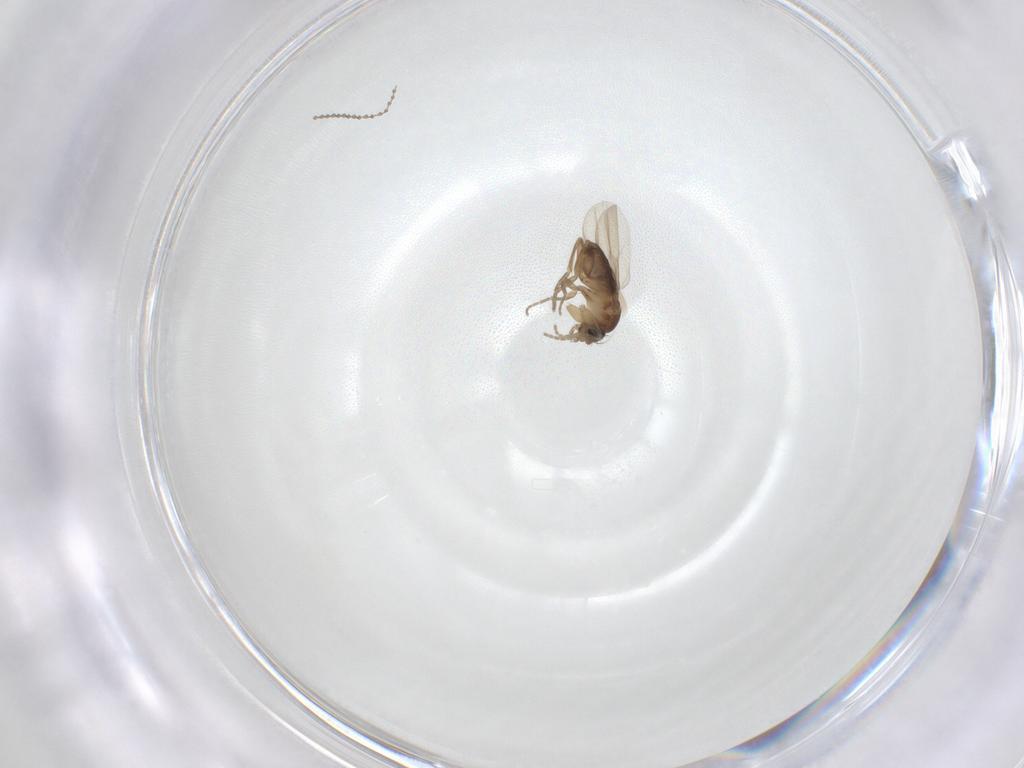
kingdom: Animalia
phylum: Arthropoda
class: Insecta
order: Diptera
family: Phoridae
